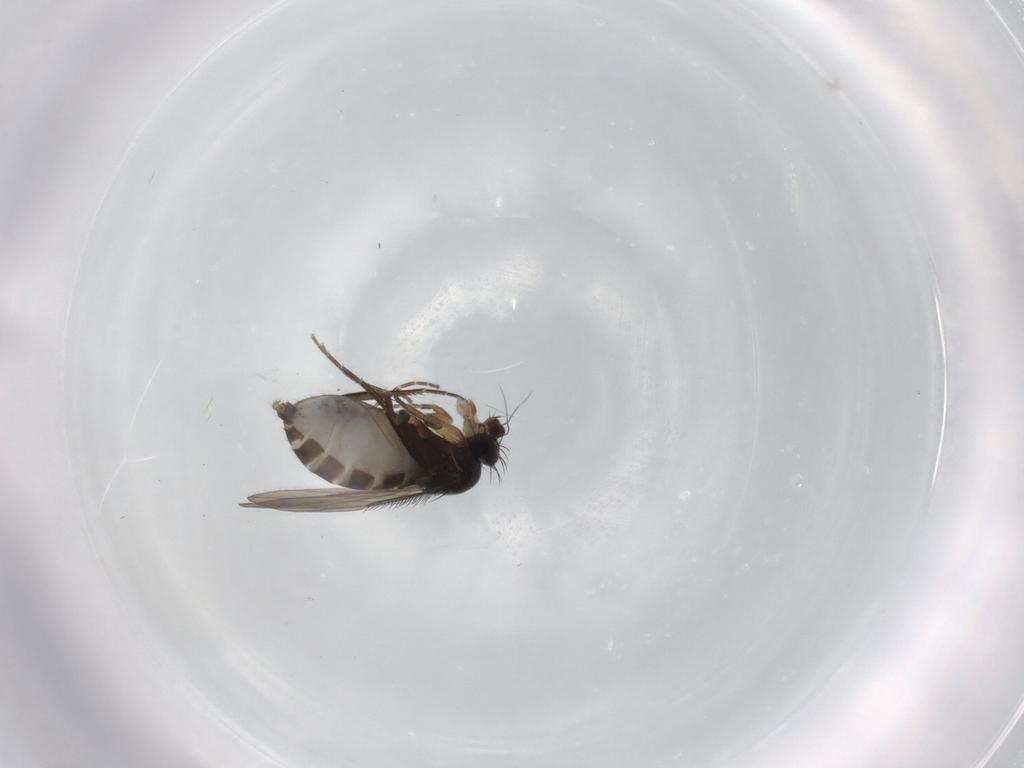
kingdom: Animalia
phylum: Arthropoda
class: Insecta
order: Diptera
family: Phoridae
